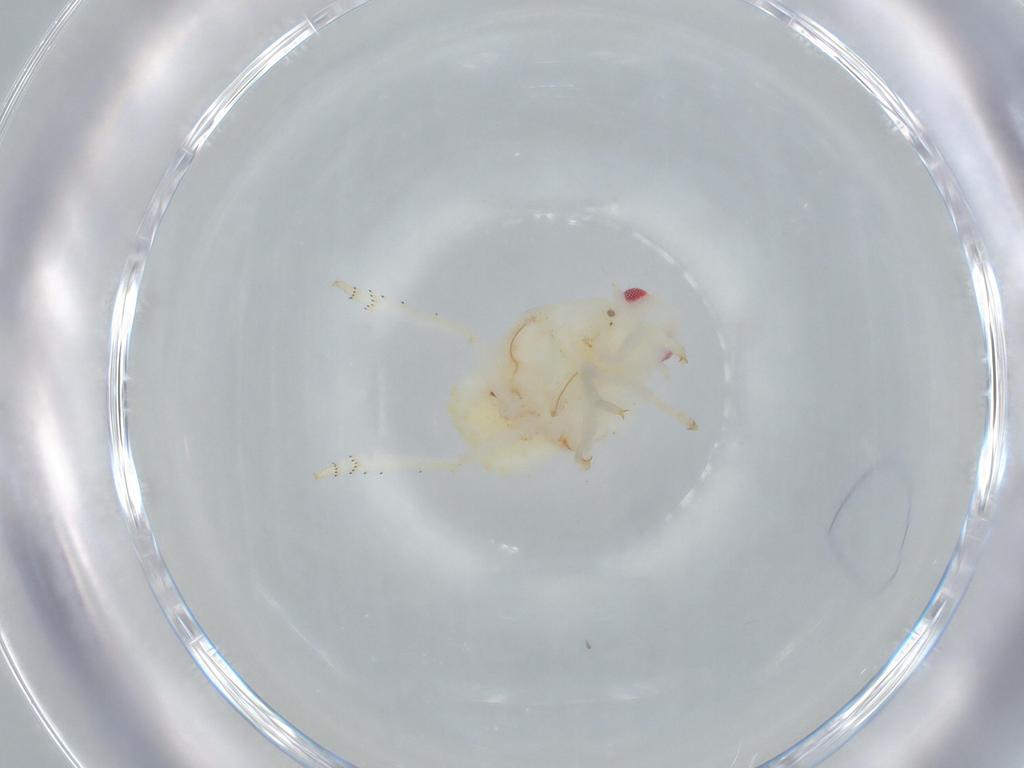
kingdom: Animalia
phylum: Arthropoda
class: Insecta
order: Hemiptera
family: Flatidae
